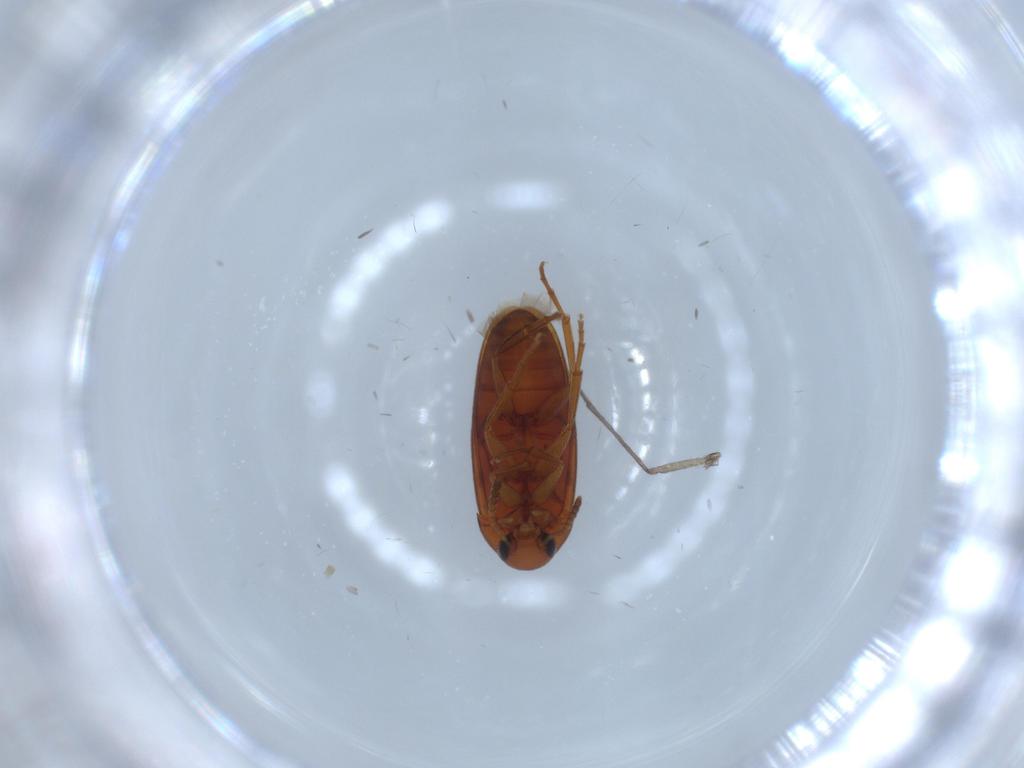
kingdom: Animalia
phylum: Arthropoda
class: Insecta
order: Coleoptera
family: Scraptiidae
